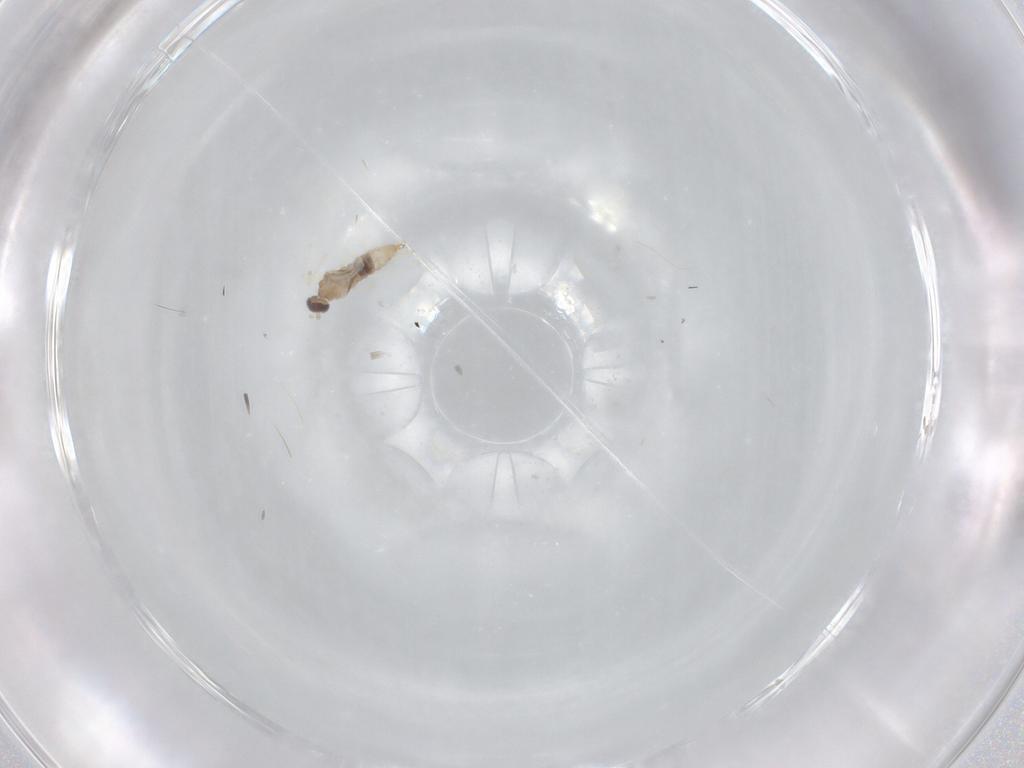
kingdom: Animalia
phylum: Arthropoda
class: Insecta
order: Diptera
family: Cecidomyiidae
